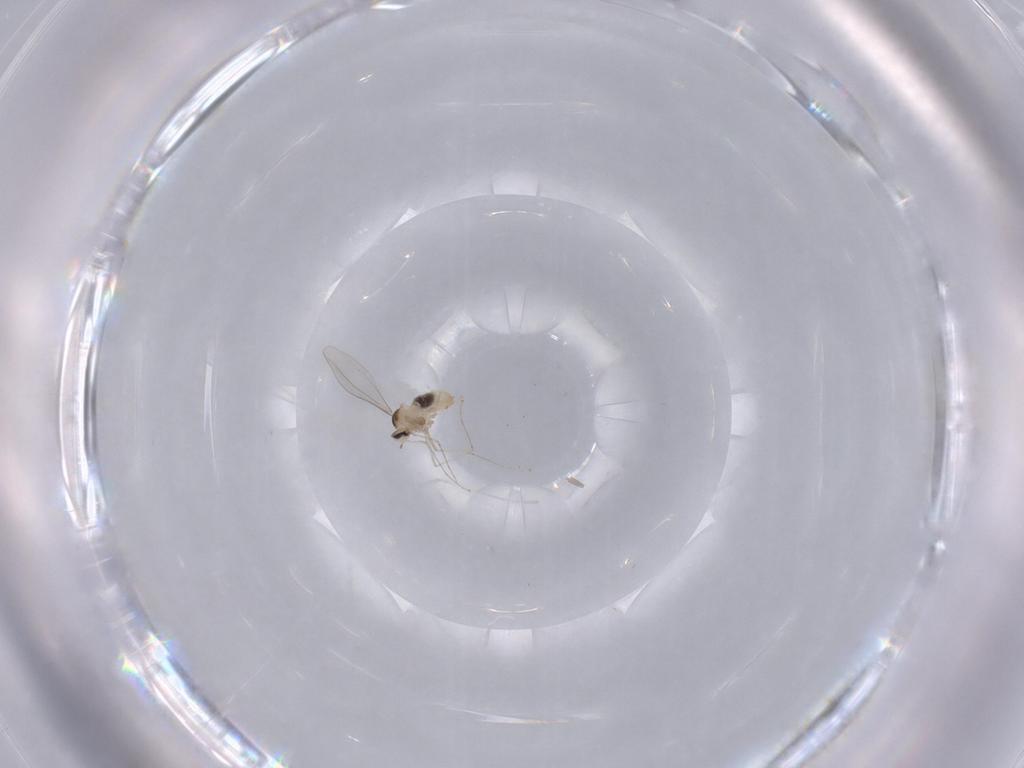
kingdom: Animalia
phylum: Arthropoda
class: Insecta
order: Diptera
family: Cecidomyiidae
